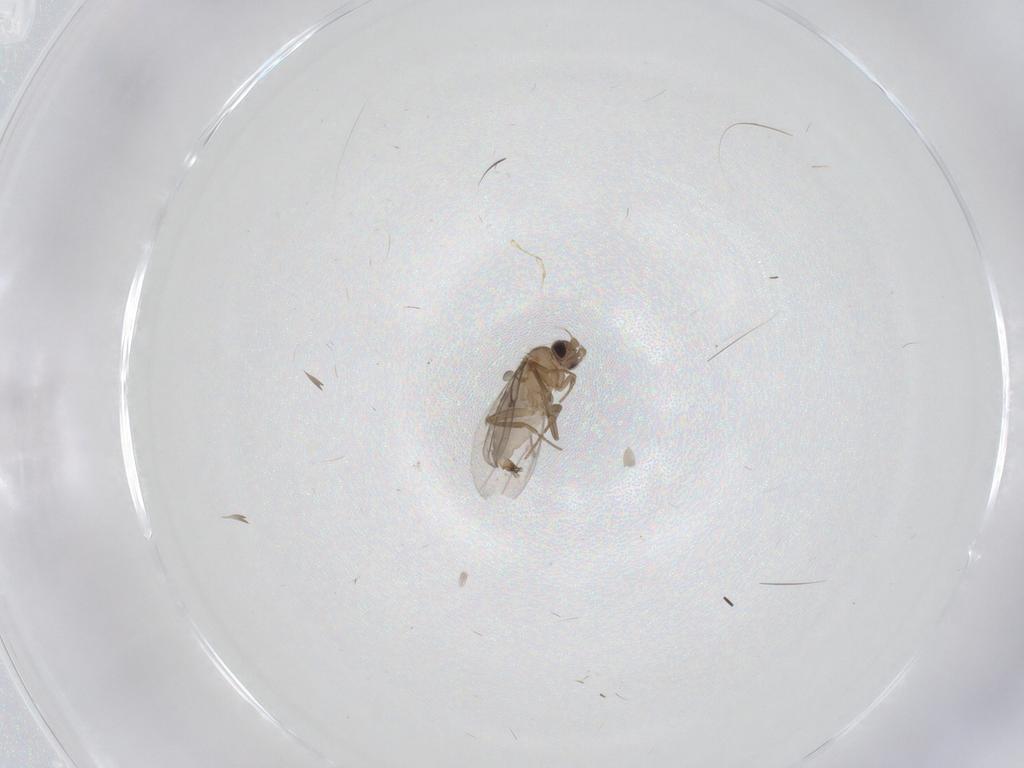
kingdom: Animalia
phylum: Arthropoda
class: Insecta
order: Diptera
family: Phoridae
